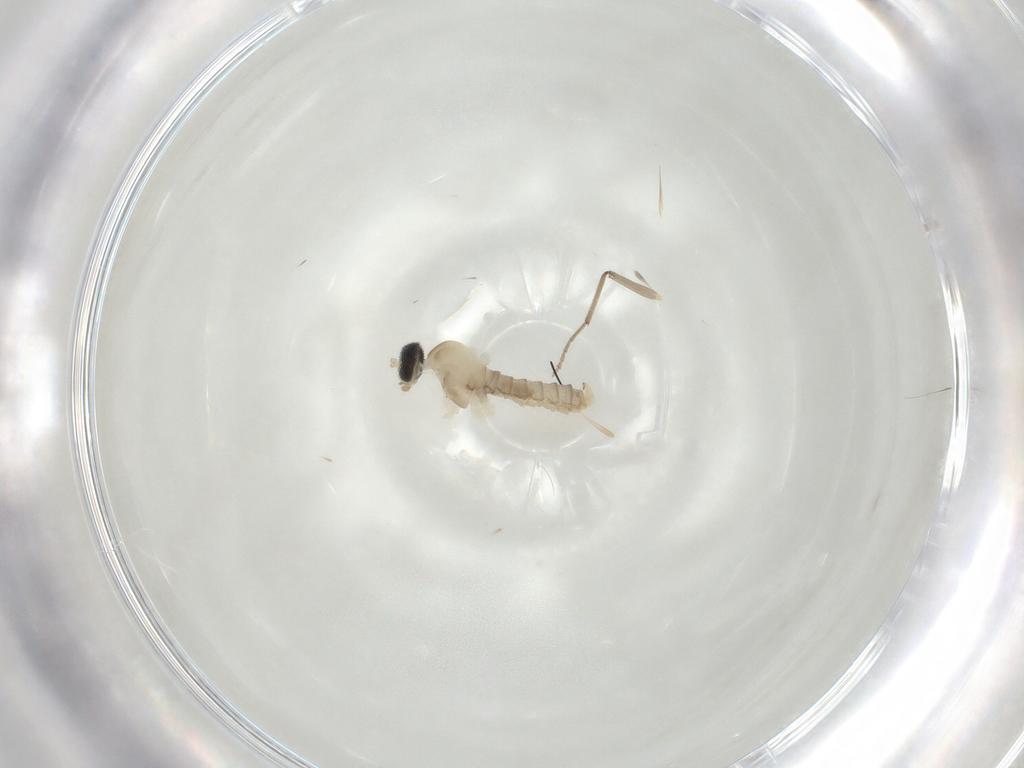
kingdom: Animalia
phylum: Arthropoda
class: Insecta
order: Diptera
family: Cecidomyiidae
